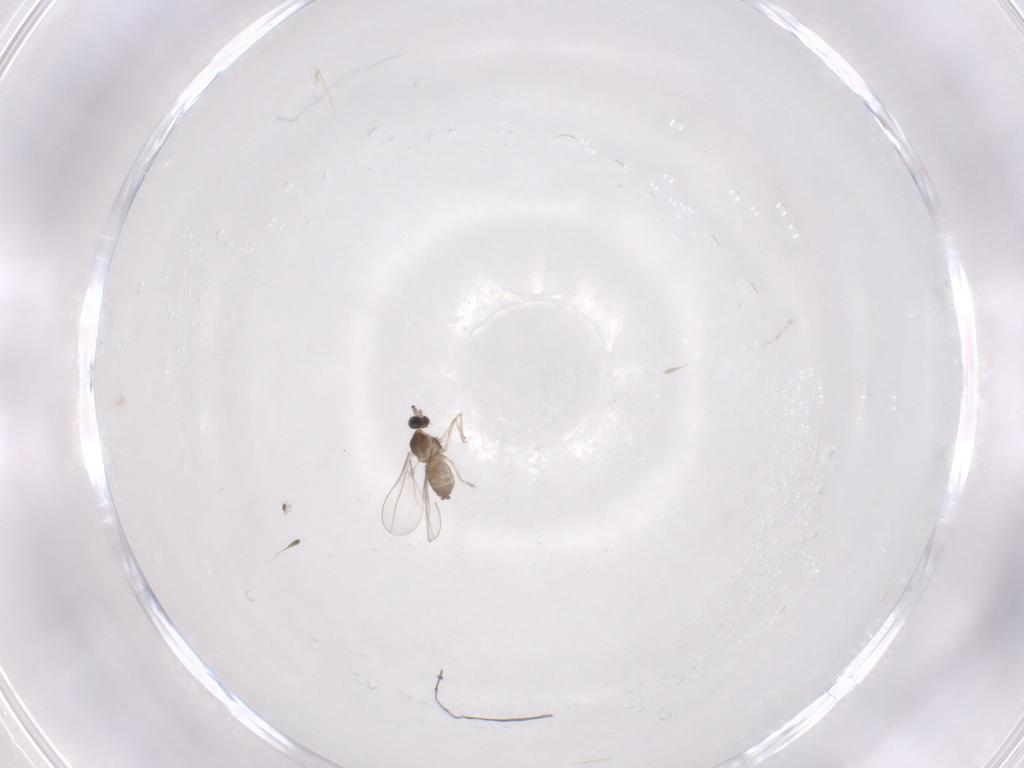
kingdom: Animalia
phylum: Arthropoda
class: Insecta
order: Diptera
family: Cecidomyiidae
